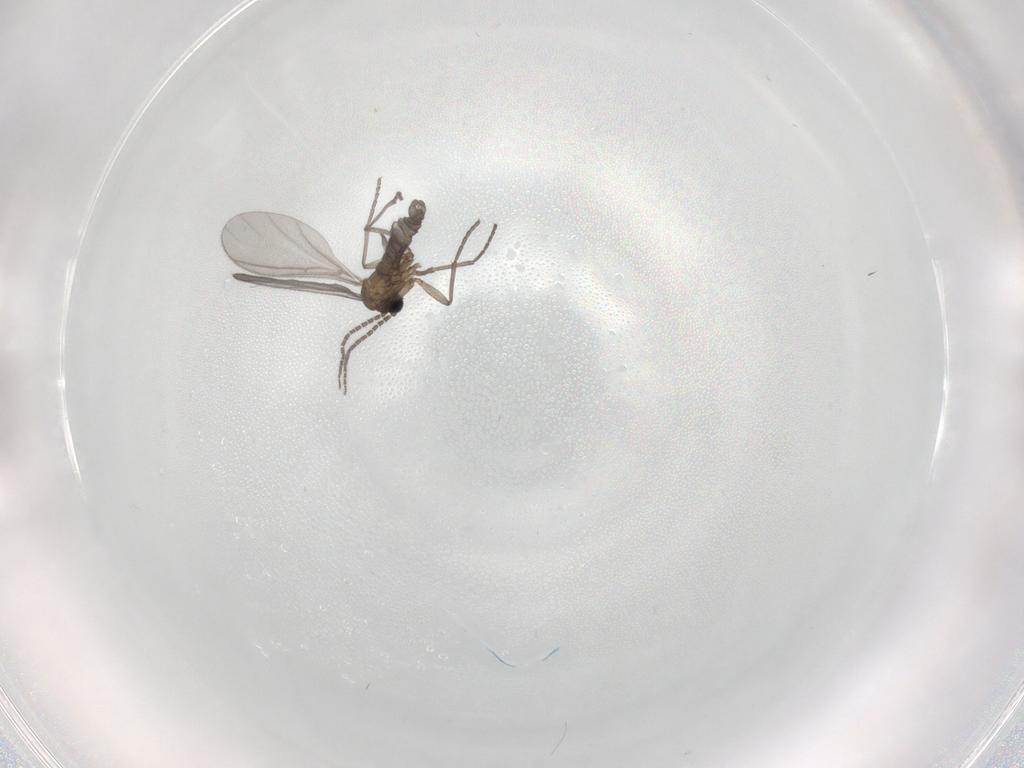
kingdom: Animalia
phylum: Arthropoda
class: Insecta
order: Diptera
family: Sciaridae
